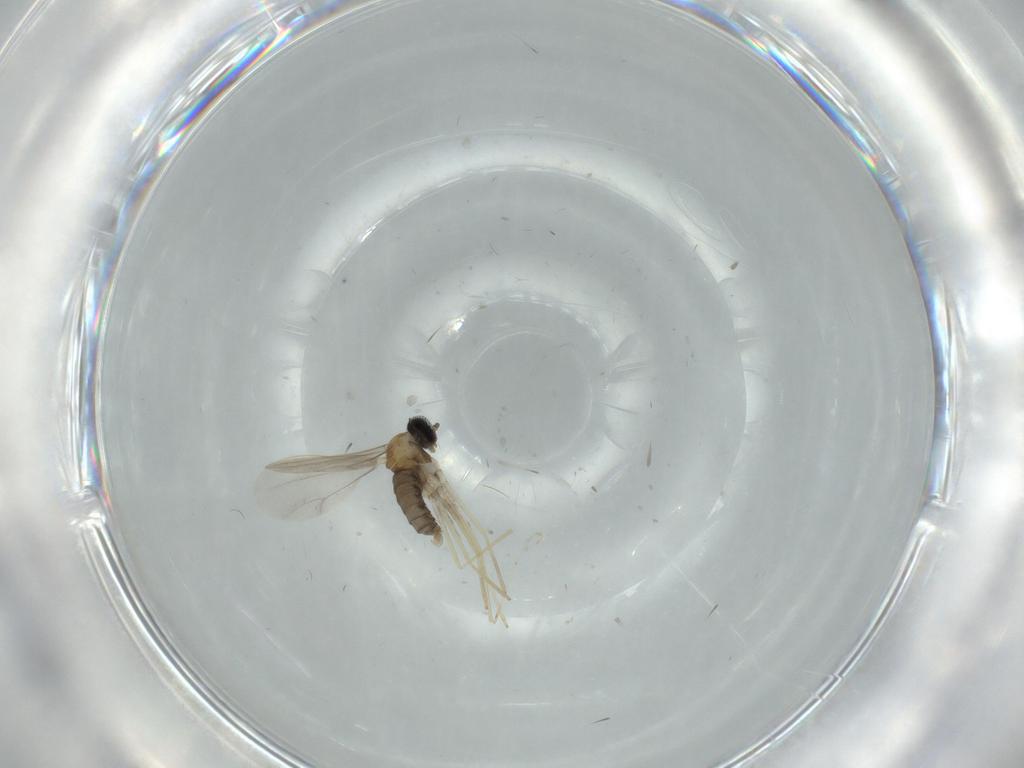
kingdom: Animalia
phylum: Arthropoda
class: Insecta
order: Diptera
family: Cecidomyiidae
